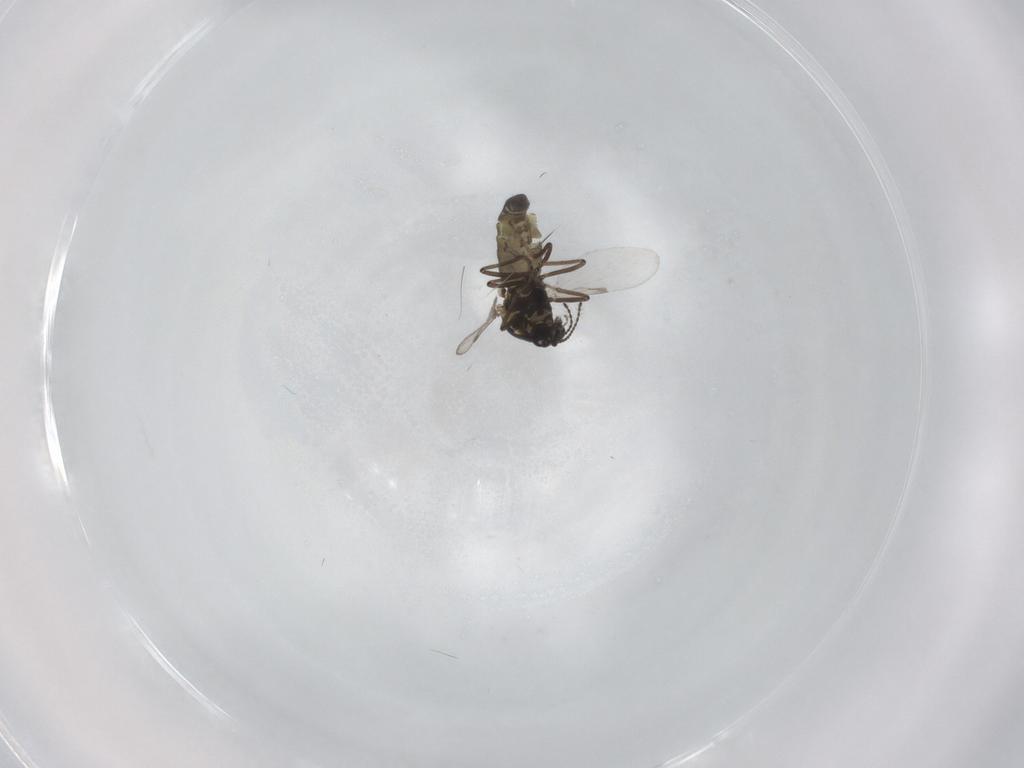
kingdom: Animalia
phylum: Arthropoda
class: Insecta
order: Diptera
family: Ceratopogonidae
